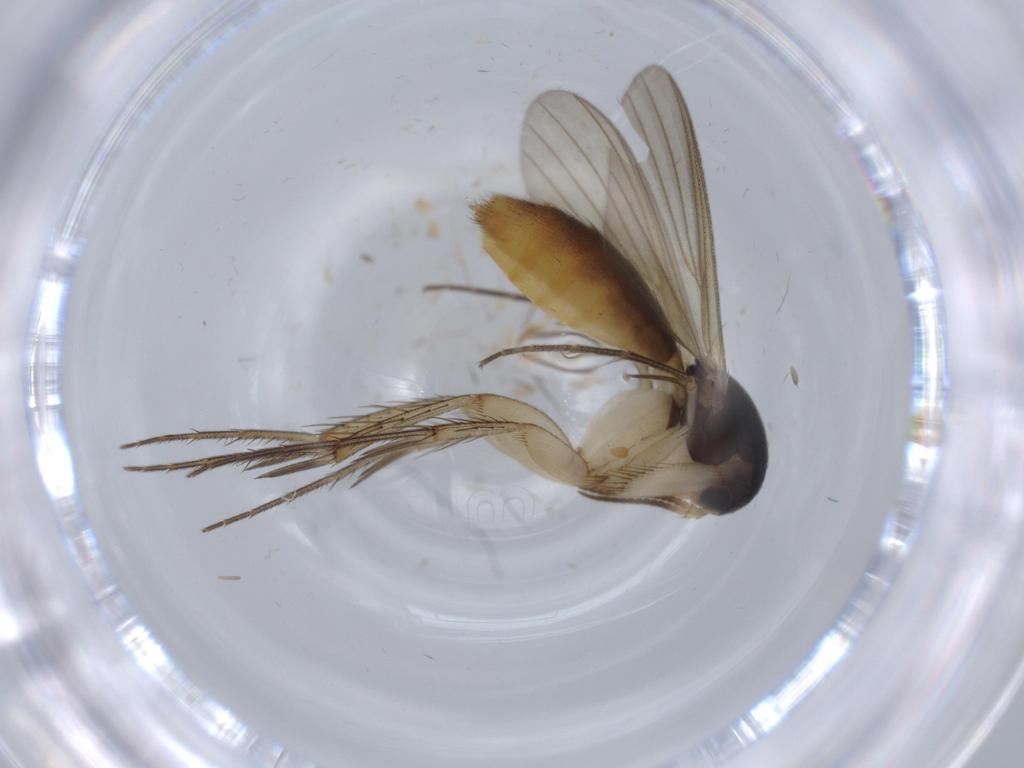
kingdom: Animalia
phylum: Arthropoda
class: Insecta
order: Diptera
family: Mycetophilidae
